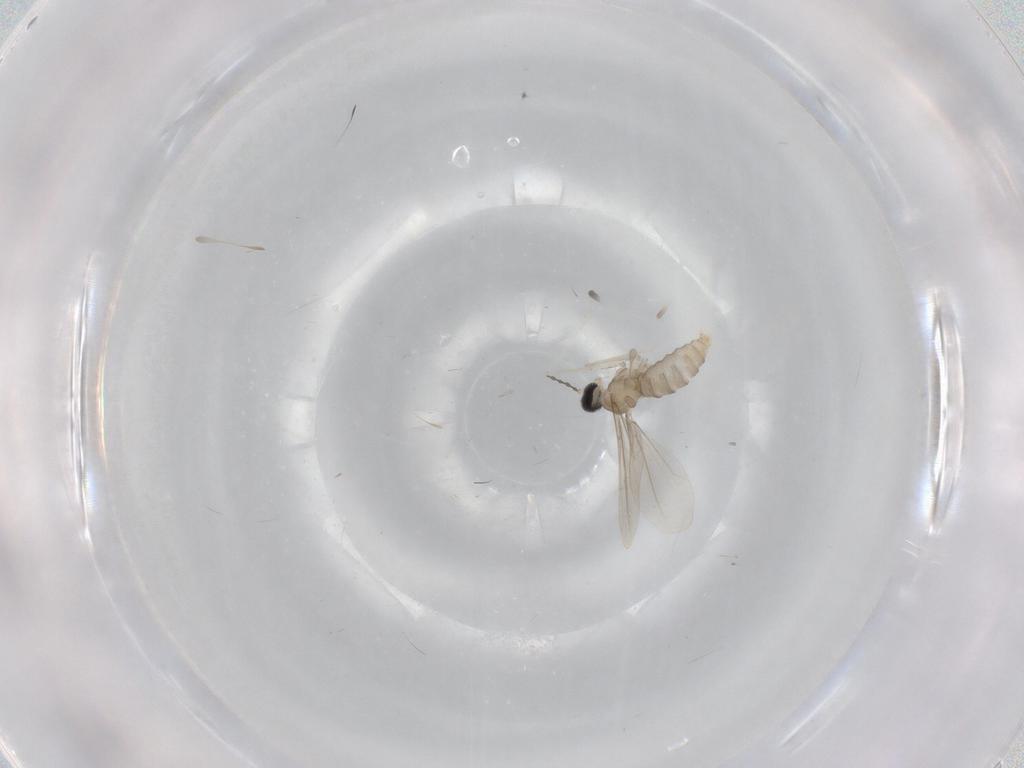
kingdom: Animalia
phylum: Arthropoda
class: Insecta
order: Diptera
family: Cecidomyiidae
